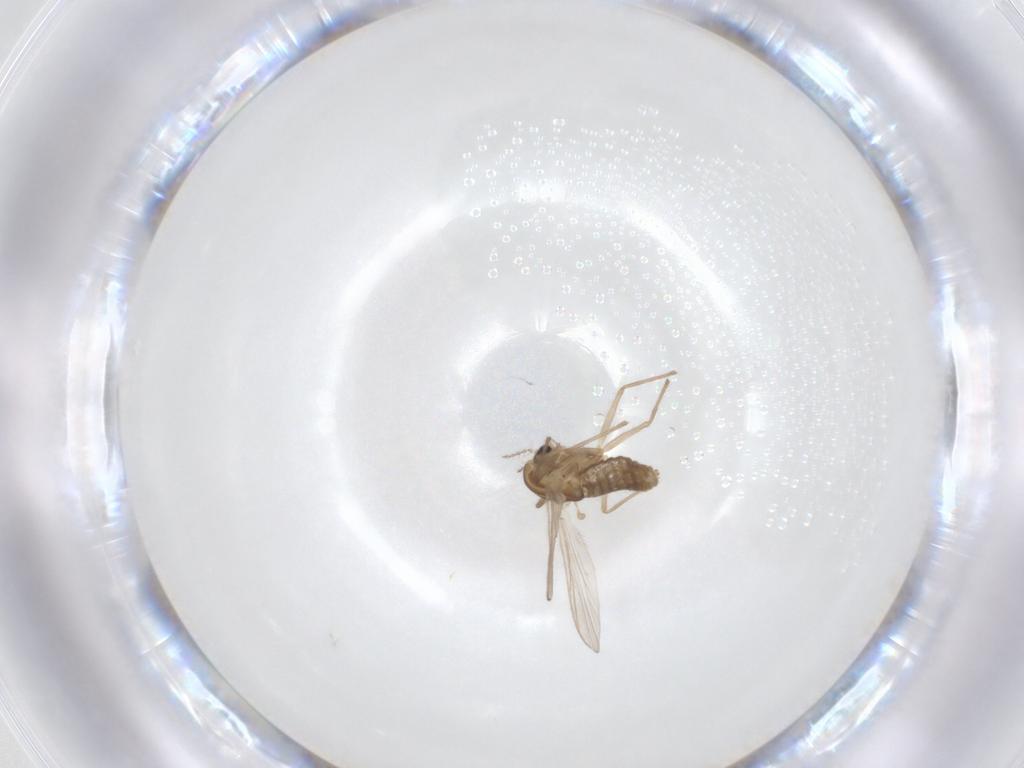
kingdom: Animalia
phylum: Arthropoda
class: Insecta
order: Diptera
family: Chironomidae
